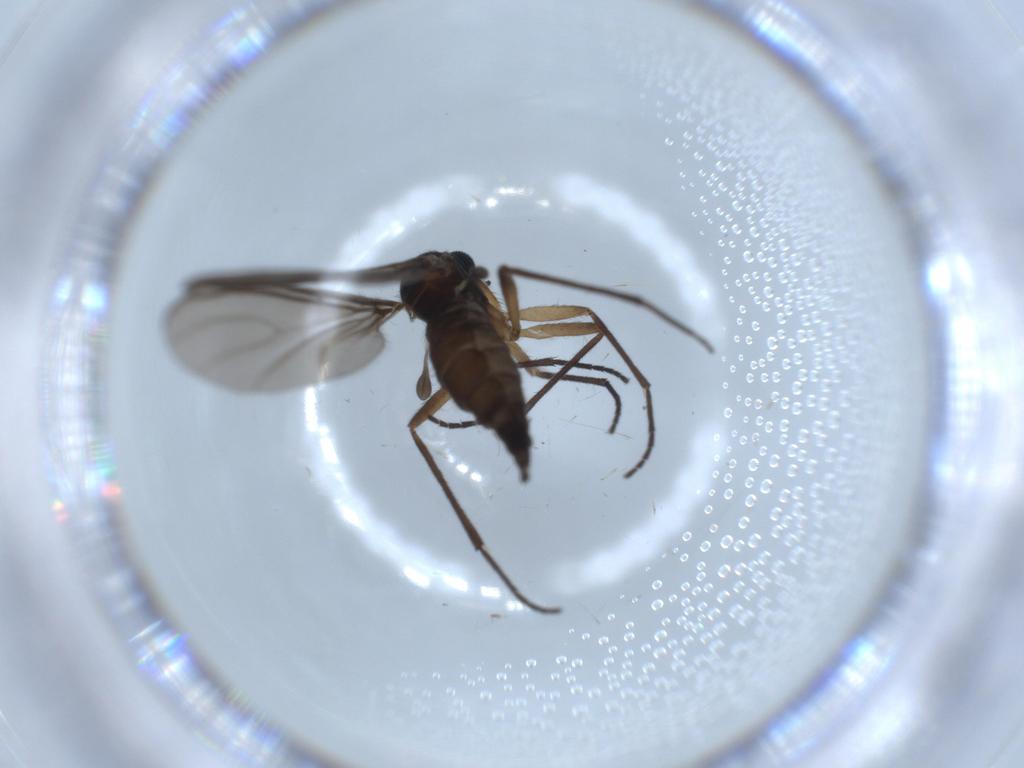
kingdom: Animalia
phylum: Arthropoda
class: Insecta
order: Diptera
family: Sciaridae
